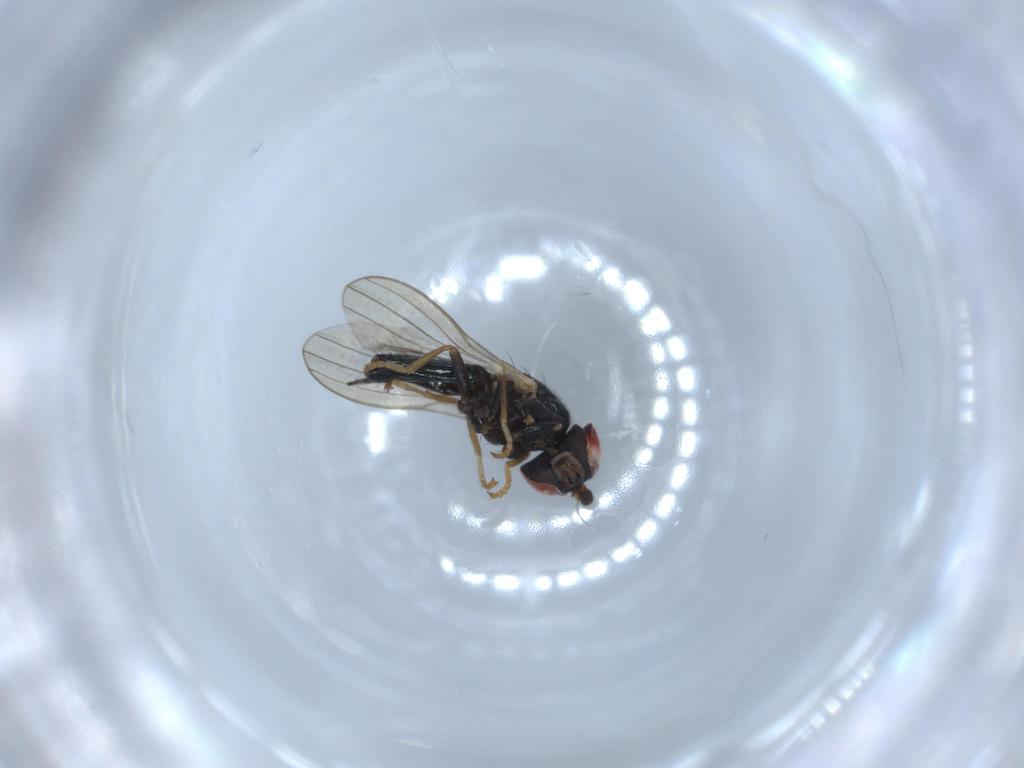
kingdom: Animalia
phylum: Arthropoda
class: Insecta
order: Diptera
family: Chamaemyiidae
